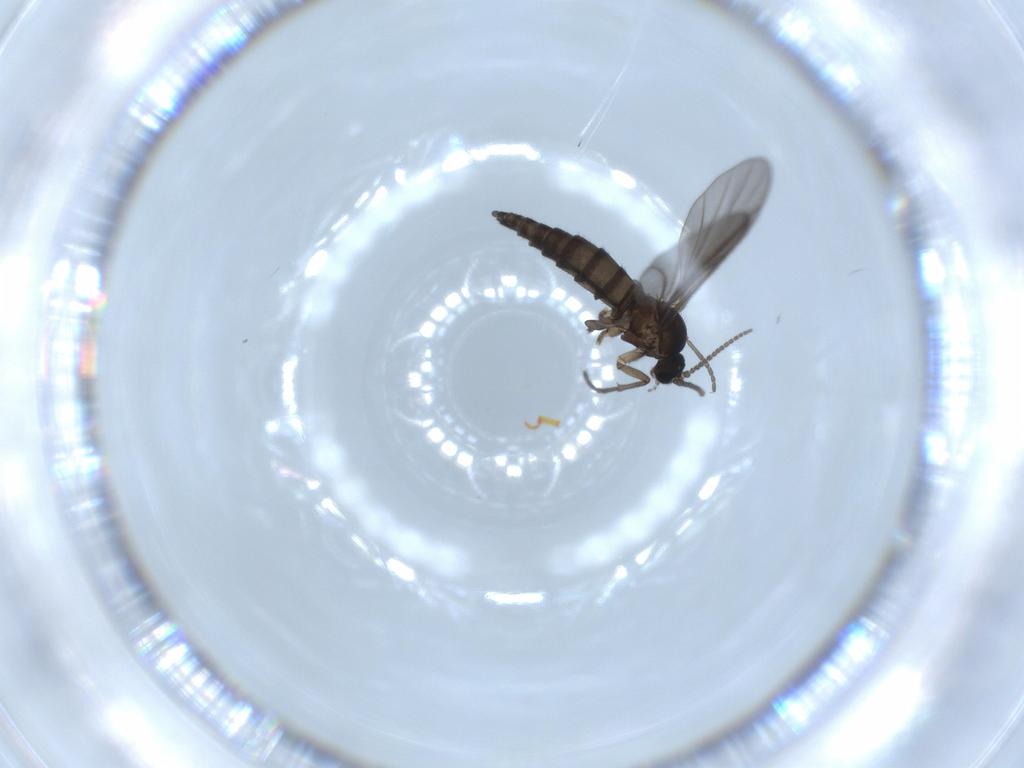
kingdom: Animalia
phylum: Arthropoda
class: Insecta
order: Diptera
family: Sciaridae
